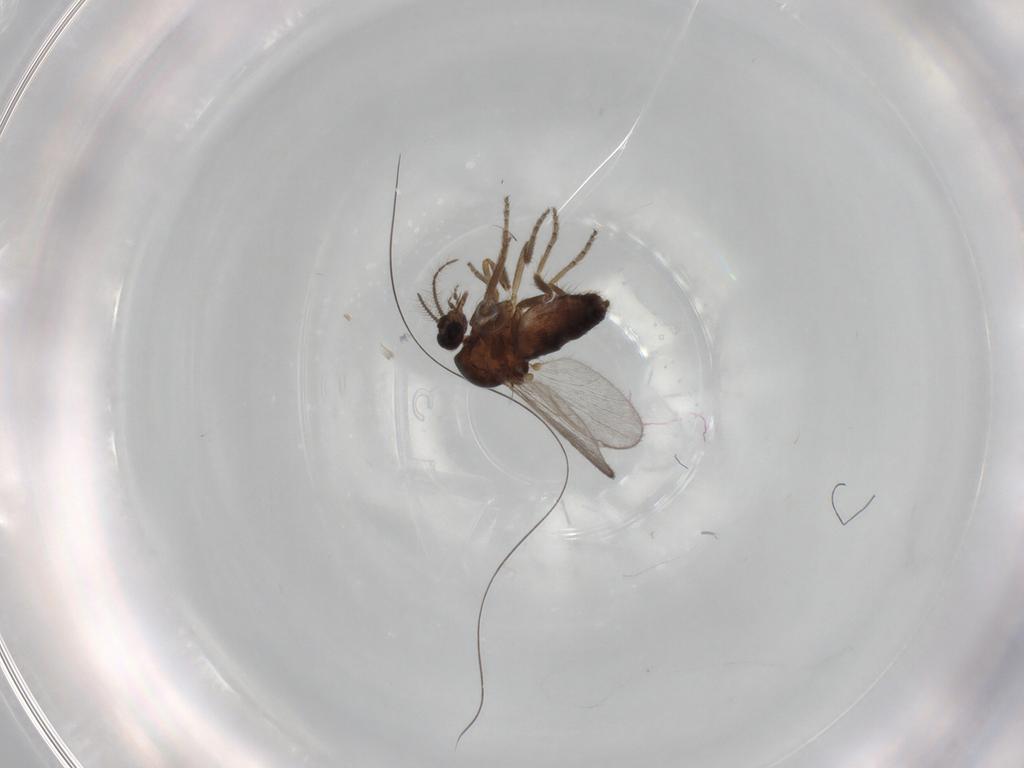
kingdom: Animalia
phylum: Arthropoda
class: Insecta
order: Diptera
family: Ceratopogonidae
